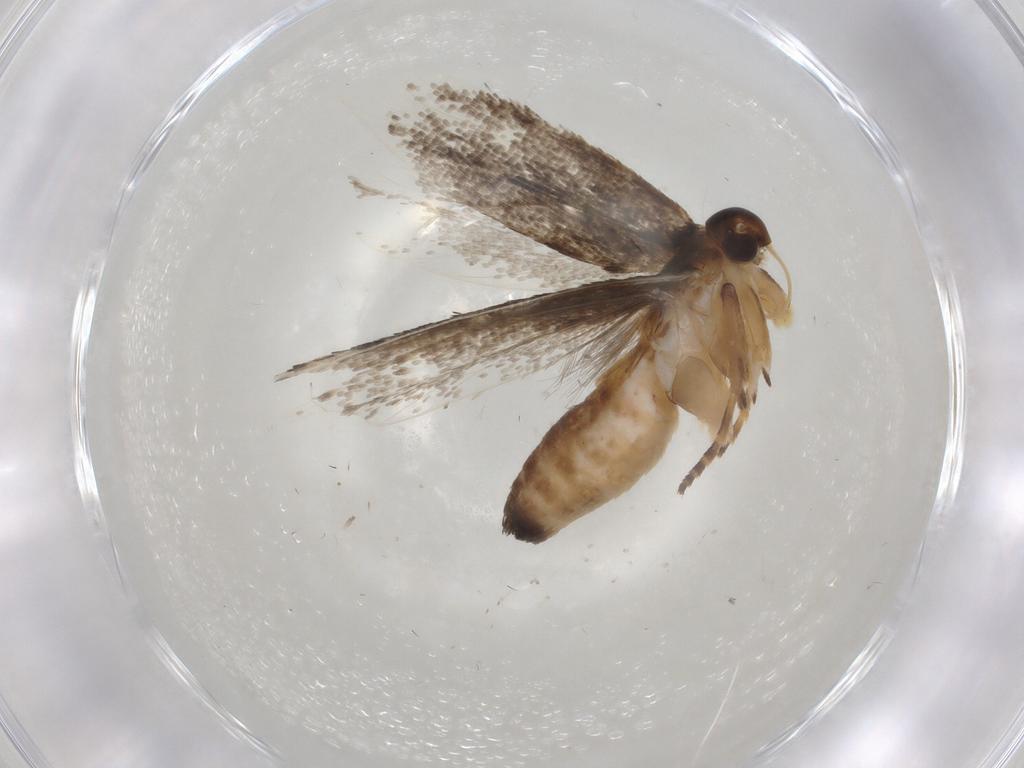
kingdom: Animalia
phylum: Arthropoda
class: Insecta
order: Lepidoptera
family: Gelechiidae
